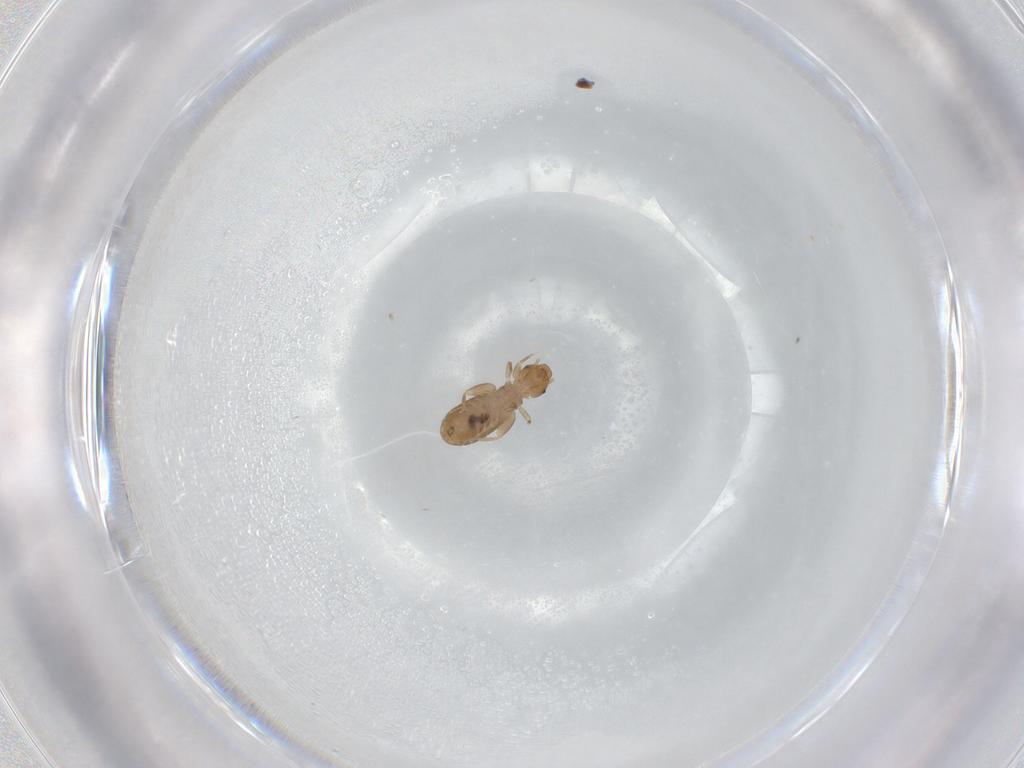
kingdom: Animalia
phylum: Arthropoda
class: Insecta
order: Psocodea
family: Liposcelididae
